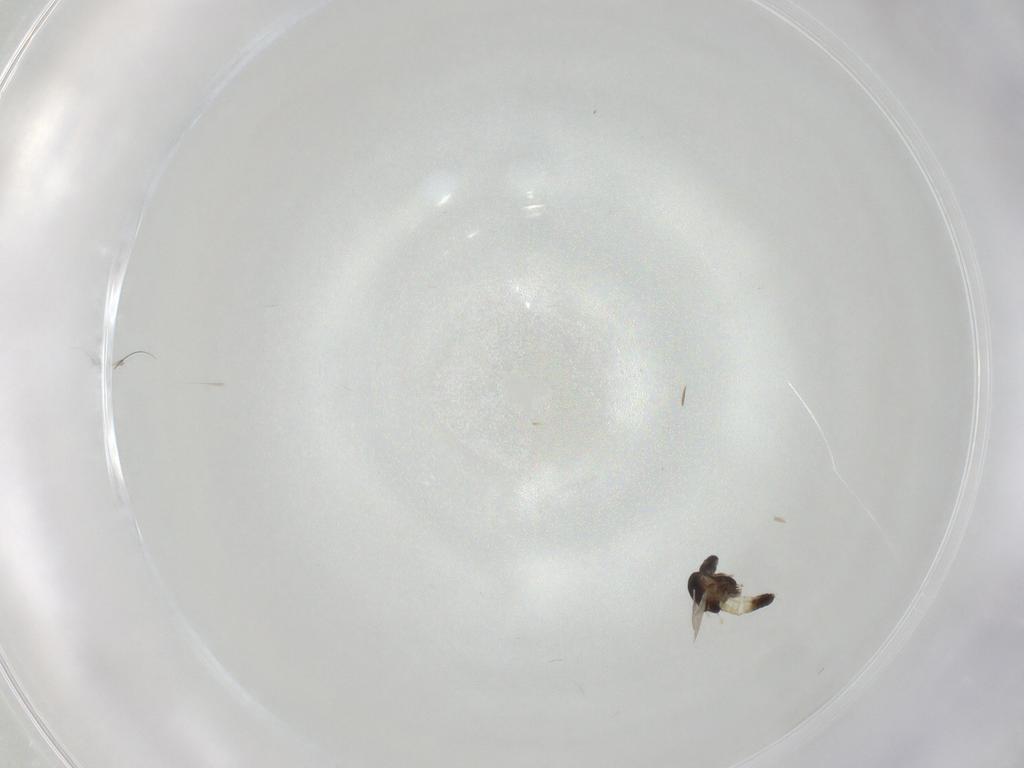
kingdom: Animalia
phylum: Arthropoda
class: Insecta
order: Diptera
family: Chironomidae
